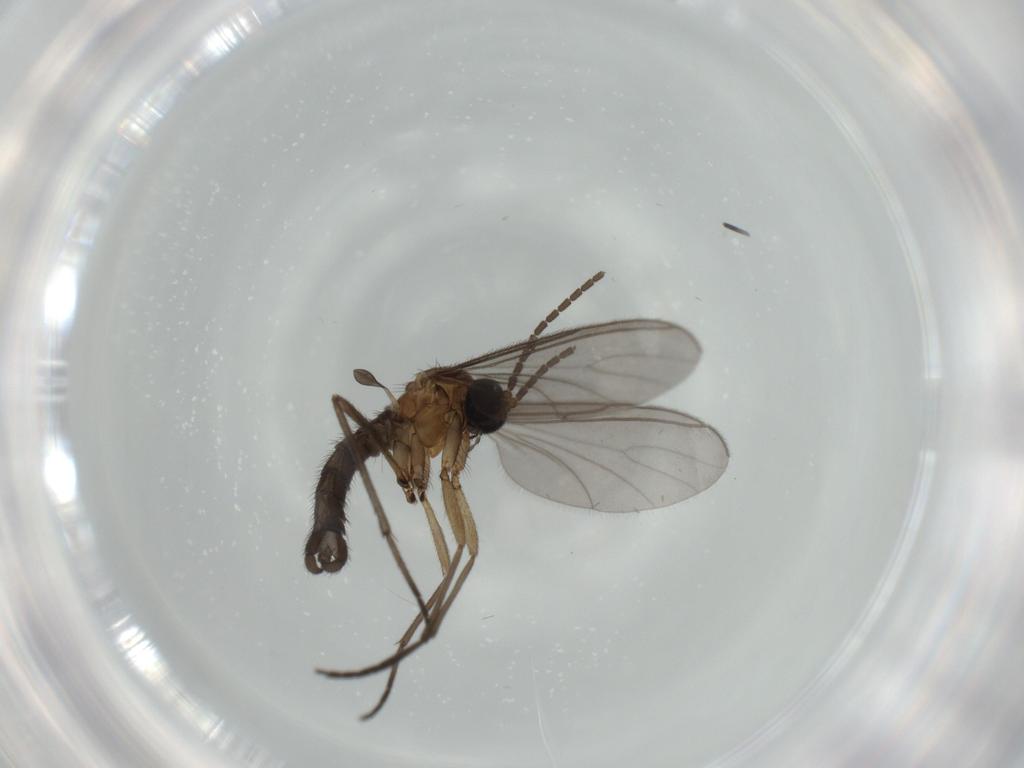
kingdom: Animalia
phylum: Arthropoda
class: Insecta
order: Diptera
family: Sciaridae
